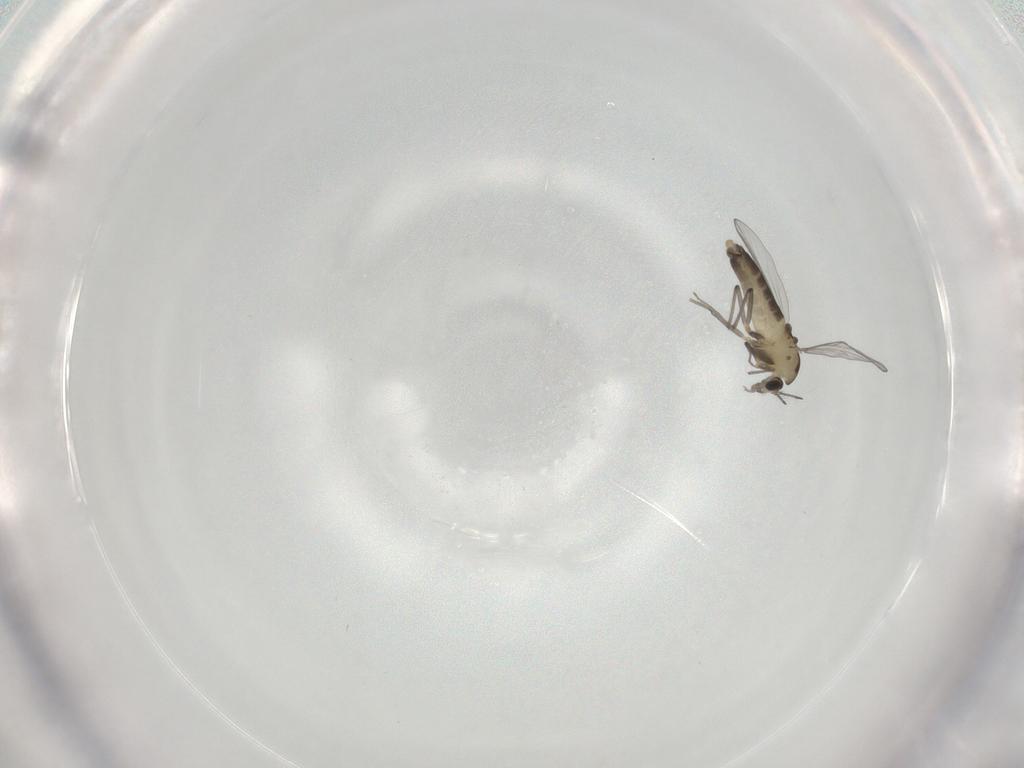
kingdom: Animalia
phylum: Arthropoda
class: Insecta
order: Diptera
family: Chironomidae
